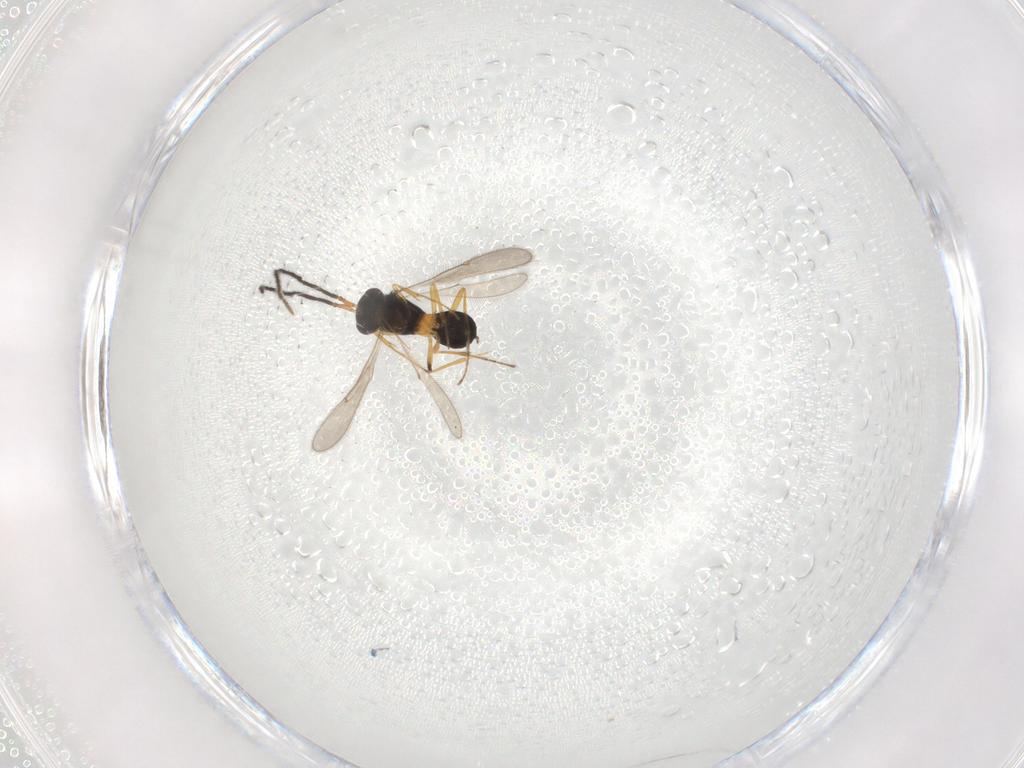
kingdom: Animalia
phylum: Arthropoda
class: Insecta
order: Hymenoptera
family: Scelionidae
